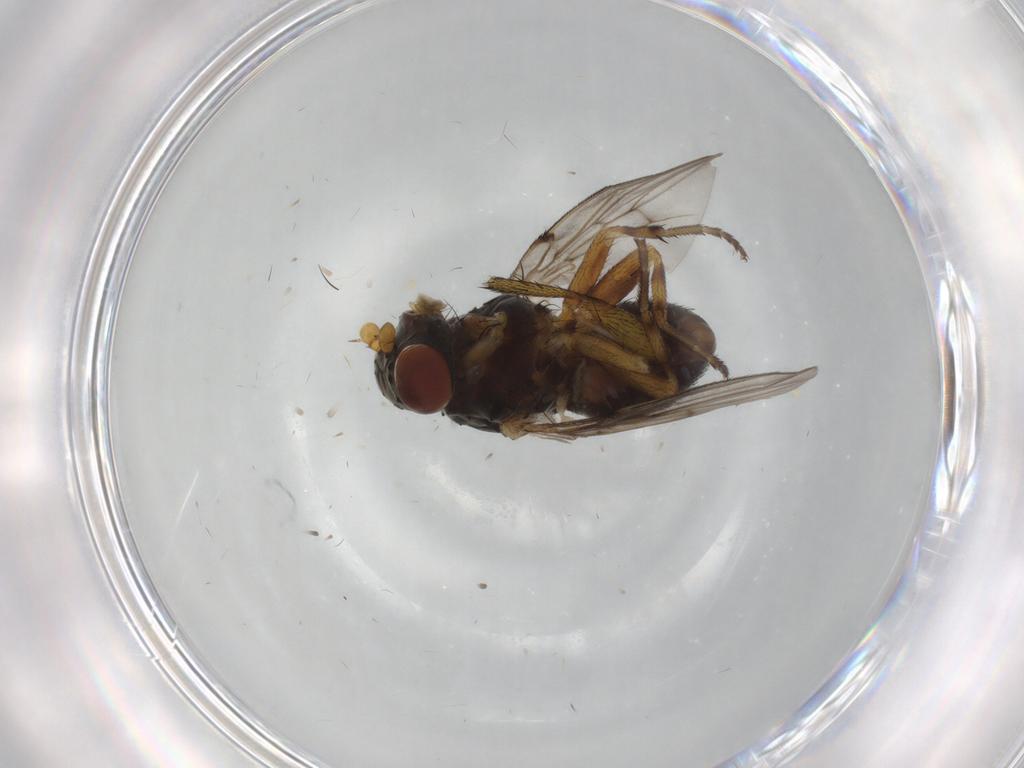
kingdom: Animalia
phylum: Arthropoda
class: Insecta
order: Diptera
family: Odiniidae
